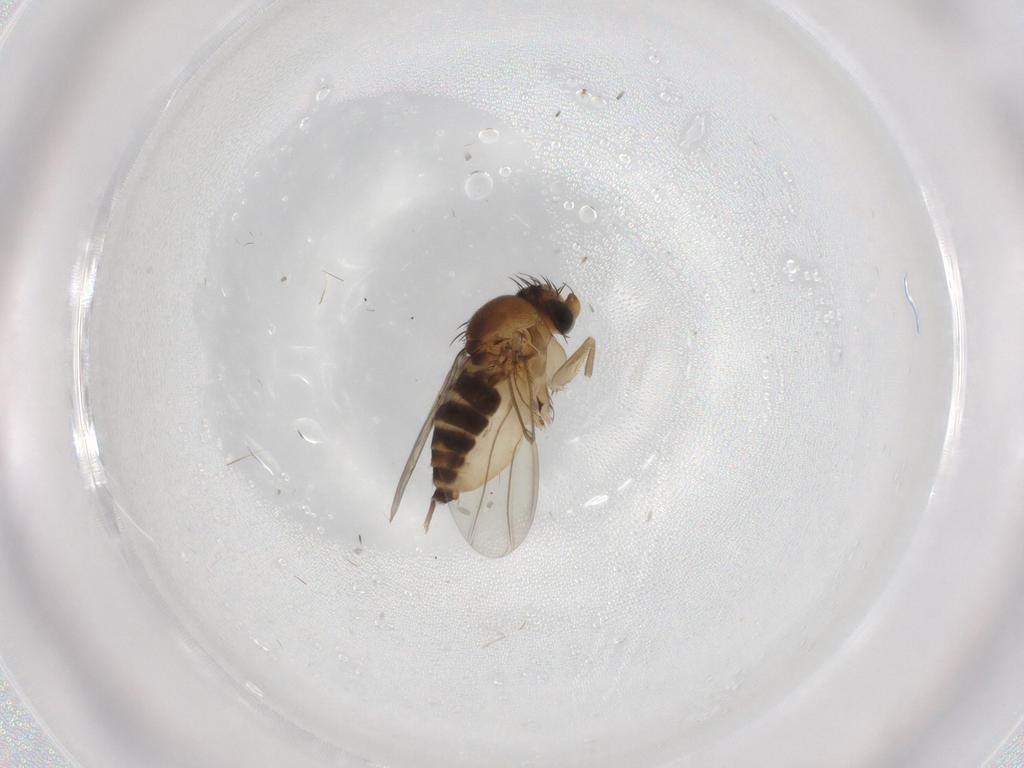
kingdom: Animalia
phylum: Arthropoda
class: Insecta
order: Diptera
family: Ceratopogonidae
